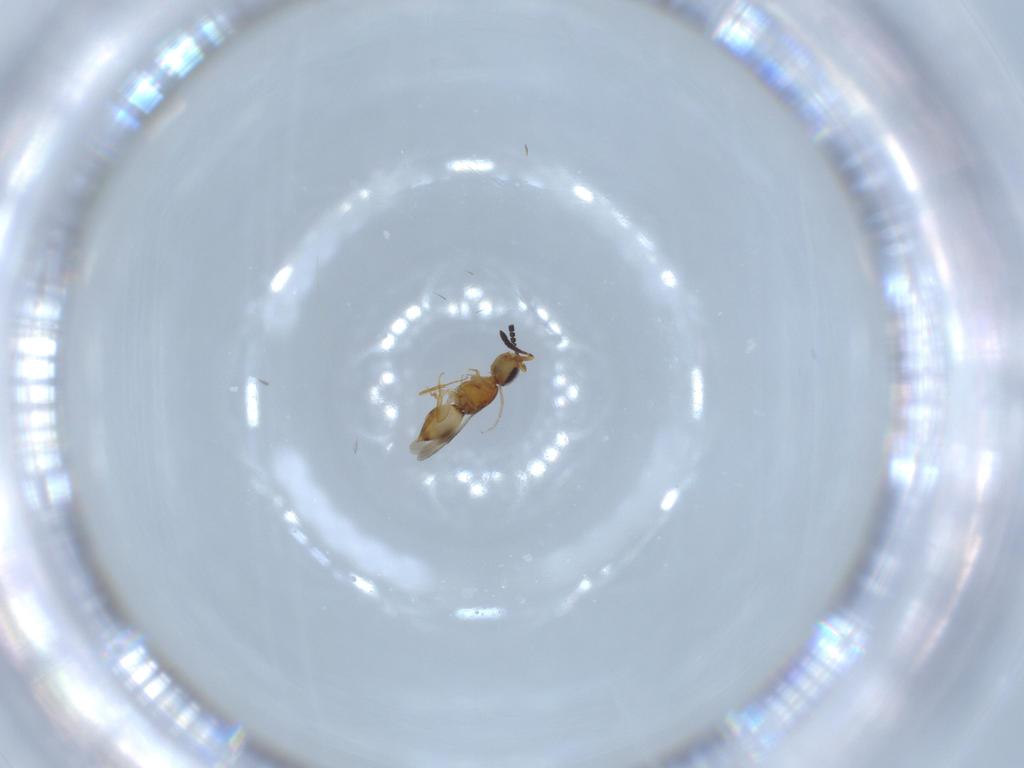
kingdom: Animalia
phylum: Arthropoda
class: Insecta
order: Hymenoptera
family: Ceraphronidae
